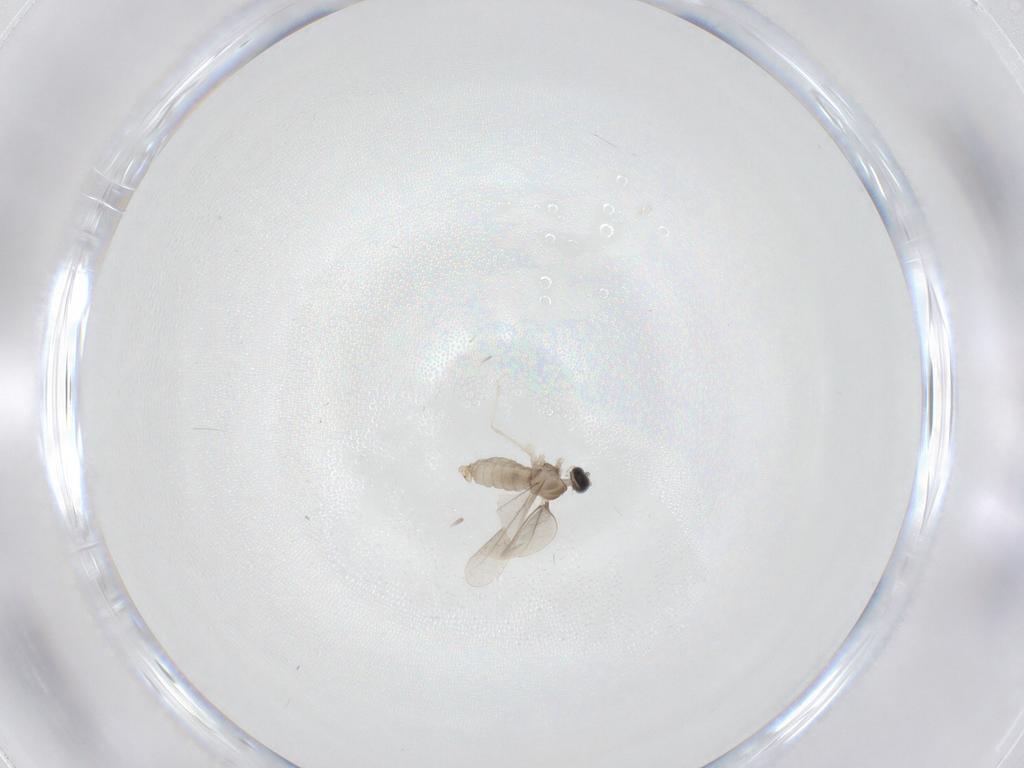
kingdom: Animalia
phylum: Arthropoda
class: Insecta
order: Diptera
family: Cecidomyiidae
